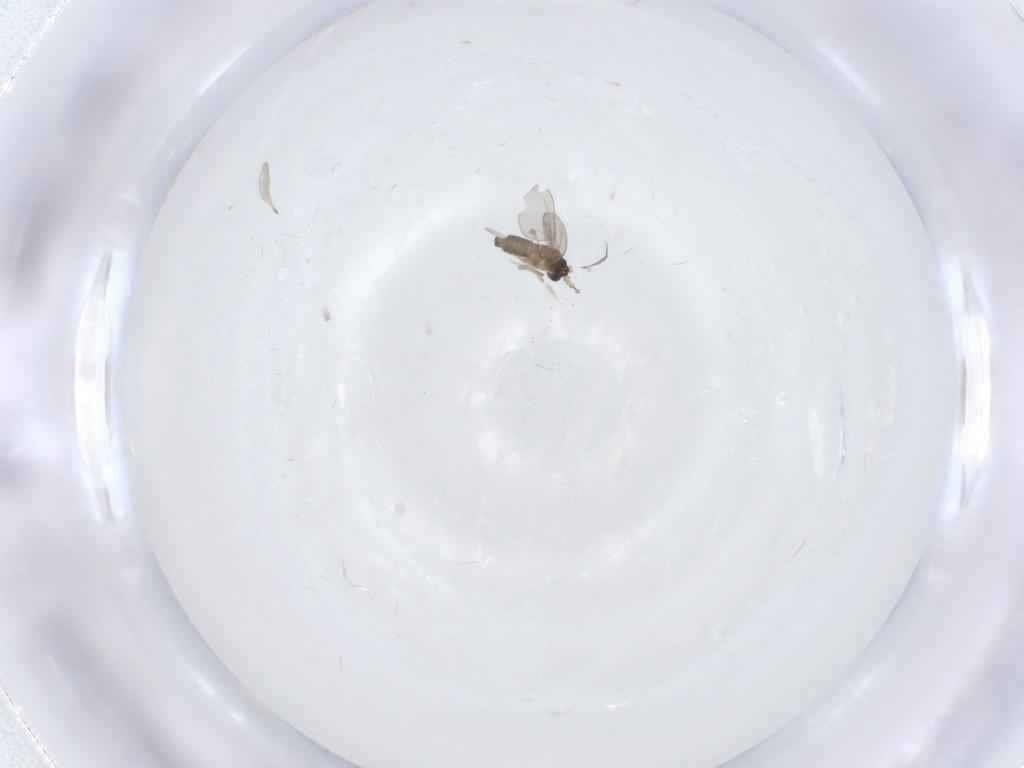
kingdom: Animalia
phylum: Arthropoda
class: Insecta
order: Diptera
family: Cecidomyiidae
